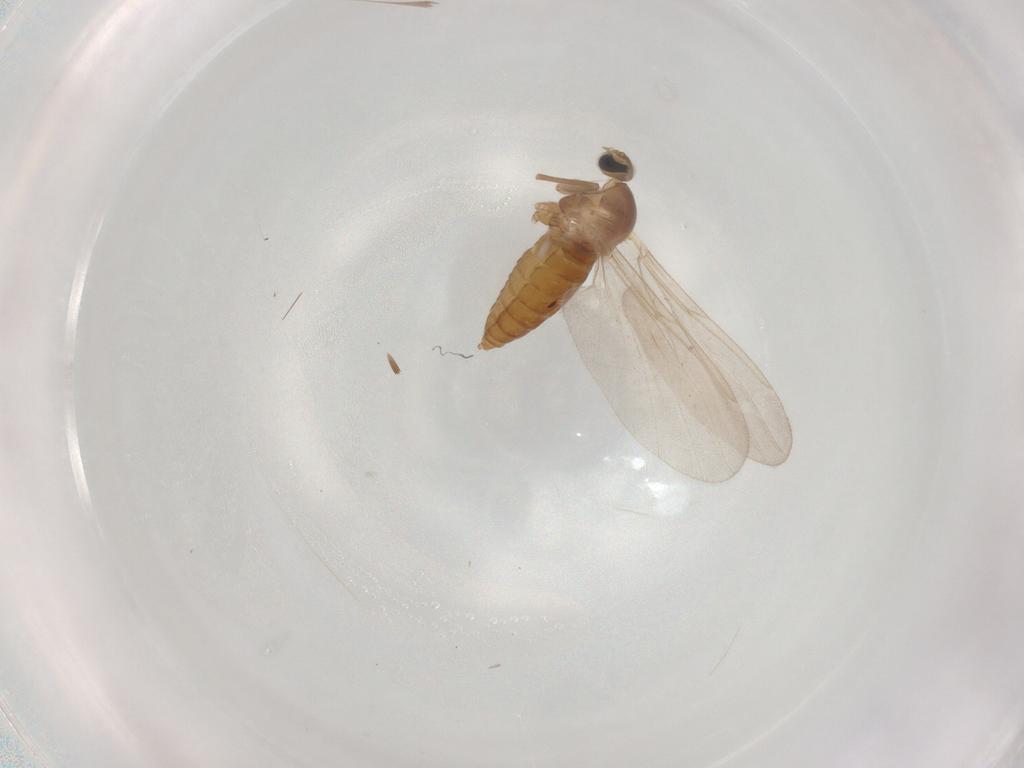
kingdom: Animalia
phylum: Arthropoda
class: Insecta
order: Diptera
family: Cecidomyiidae
